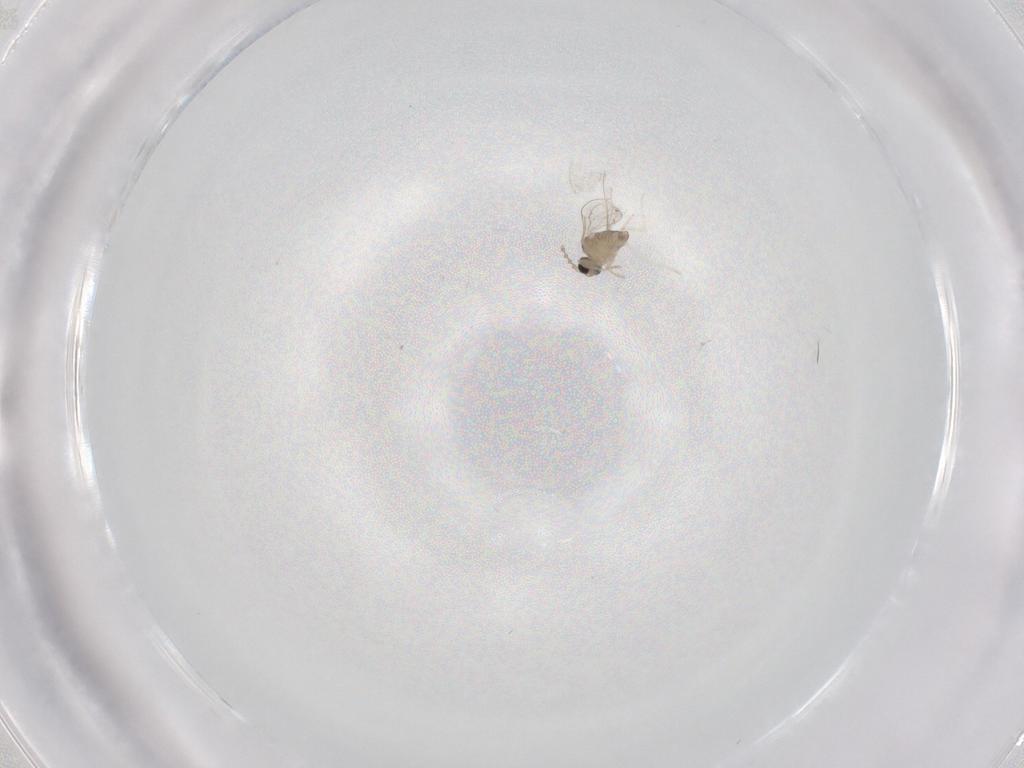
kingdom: Animalia
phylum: Arthropoda
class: Insecta
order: Diptera
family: Cecidomyiidae
